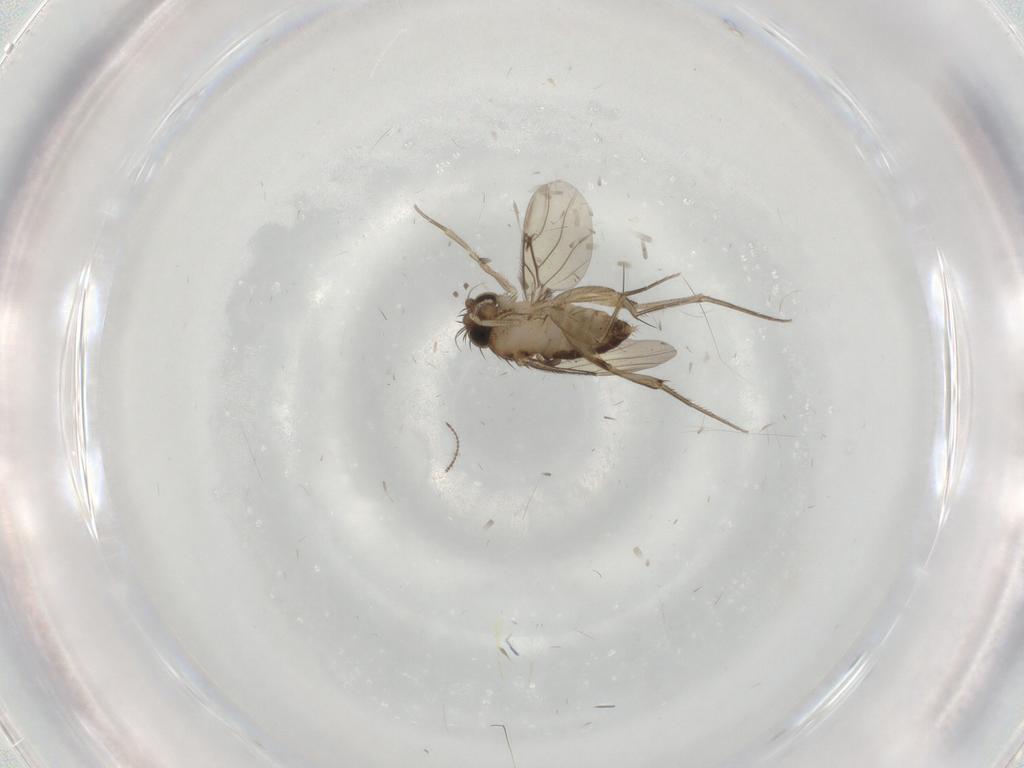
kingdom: Animalia
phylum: Arthropoda
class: Insecta
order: Diptera
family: Phoridae
